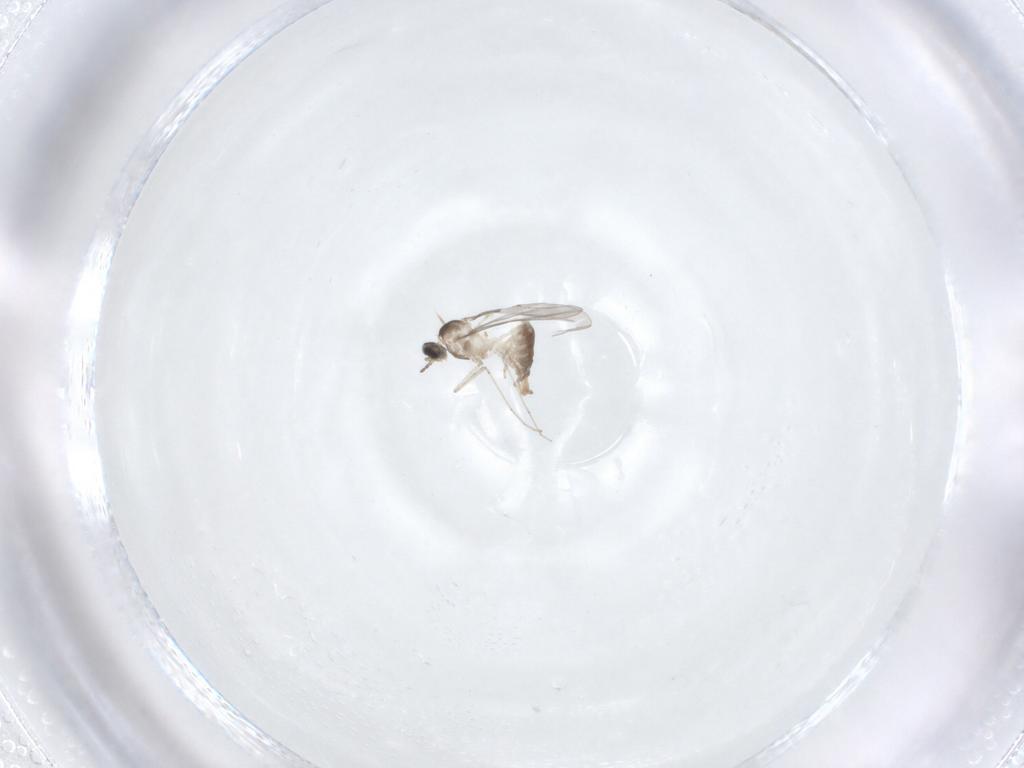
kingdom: Animalia
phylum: Arthropoda
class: Insecta
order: Diptera
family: Cecidomyiidae
